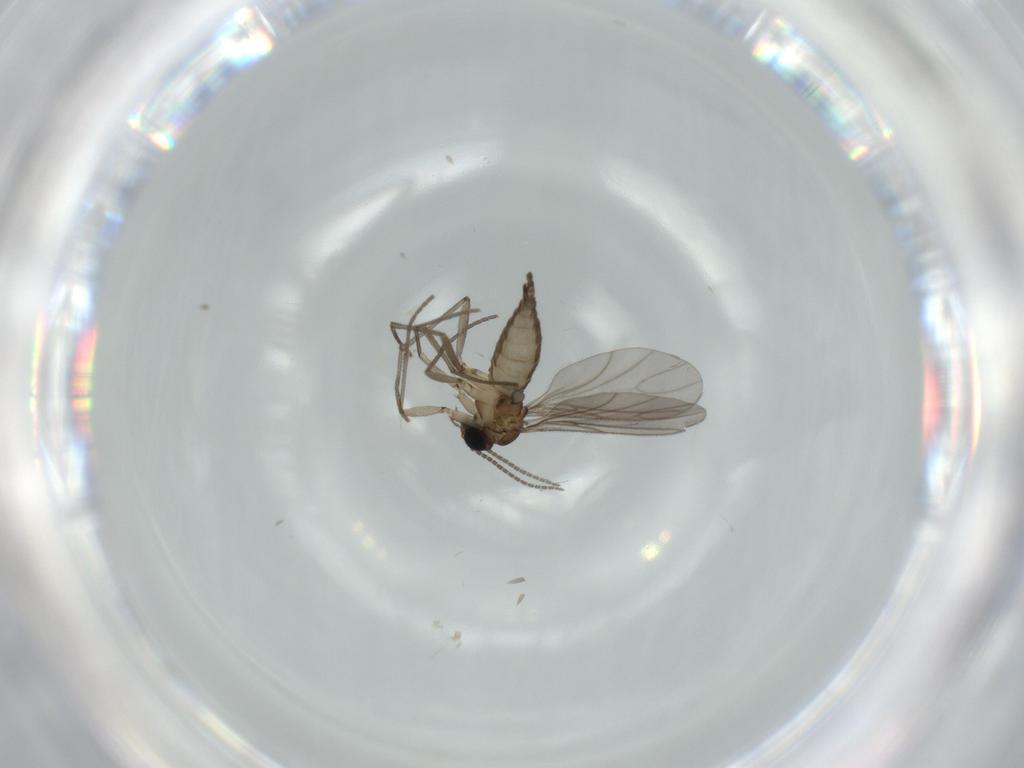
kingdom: Animalia
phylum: Arthropoda
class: Insecta
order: Diptera
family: Sciaridae
